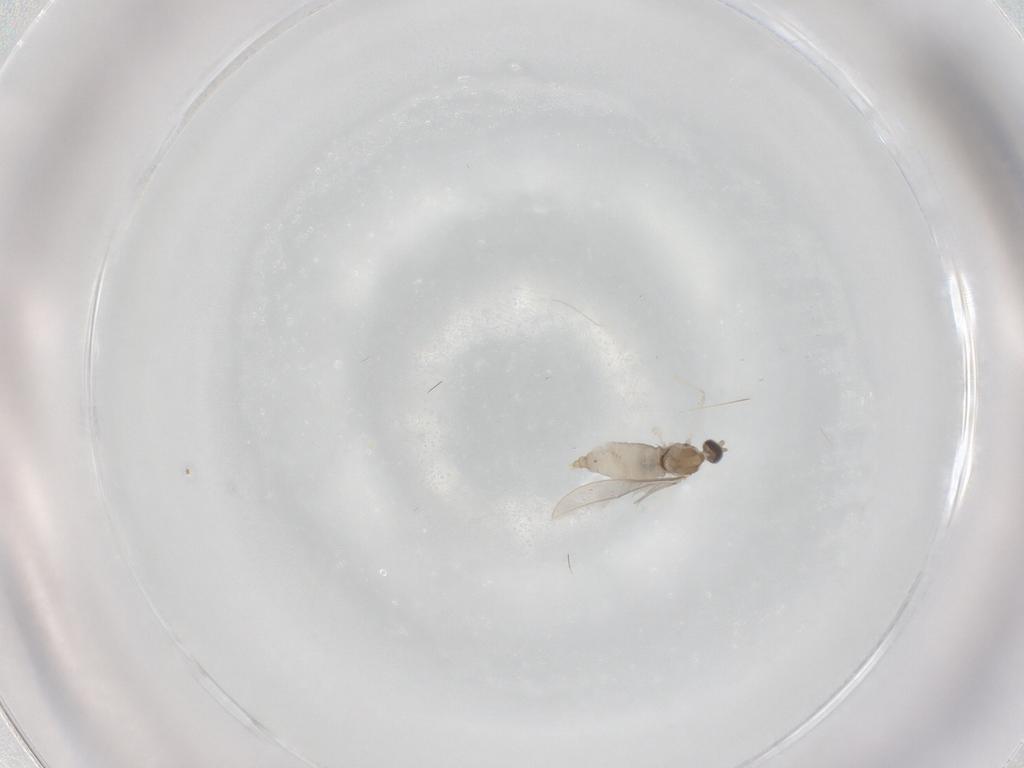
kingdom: Animalia
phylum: Arthropoda
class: Insecta
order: Diptera
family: Cecidomyiidae
